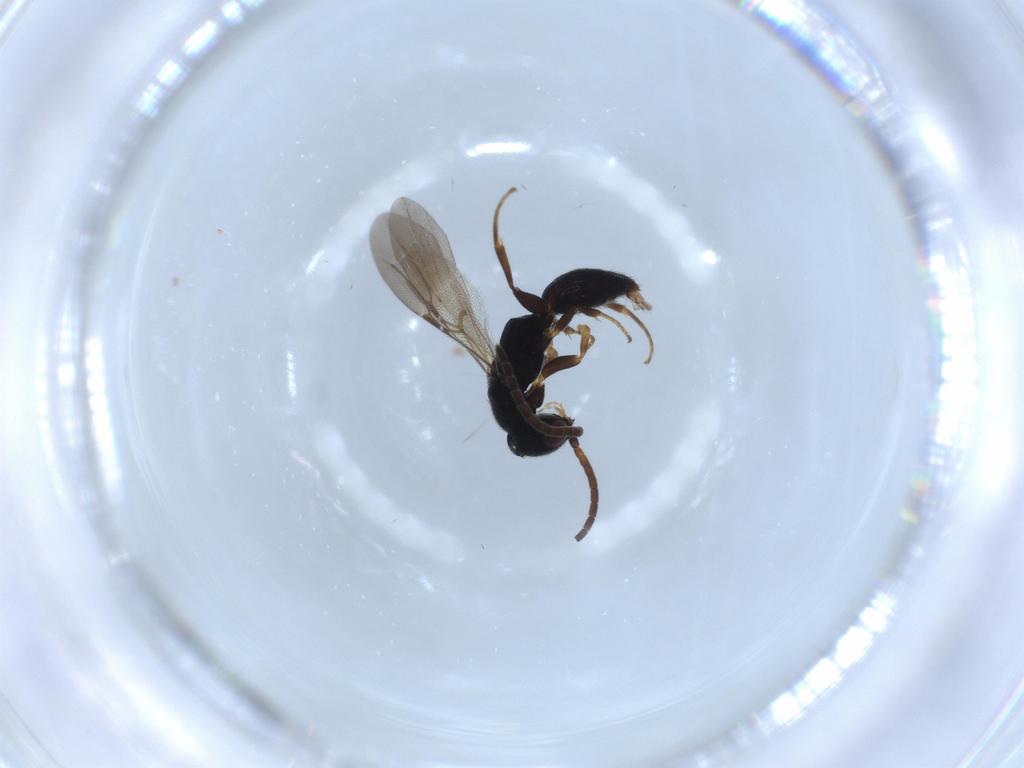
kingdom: Animalia
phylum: Arthropoda
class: Insecta
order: Hymenoptera
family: Bethylidae
